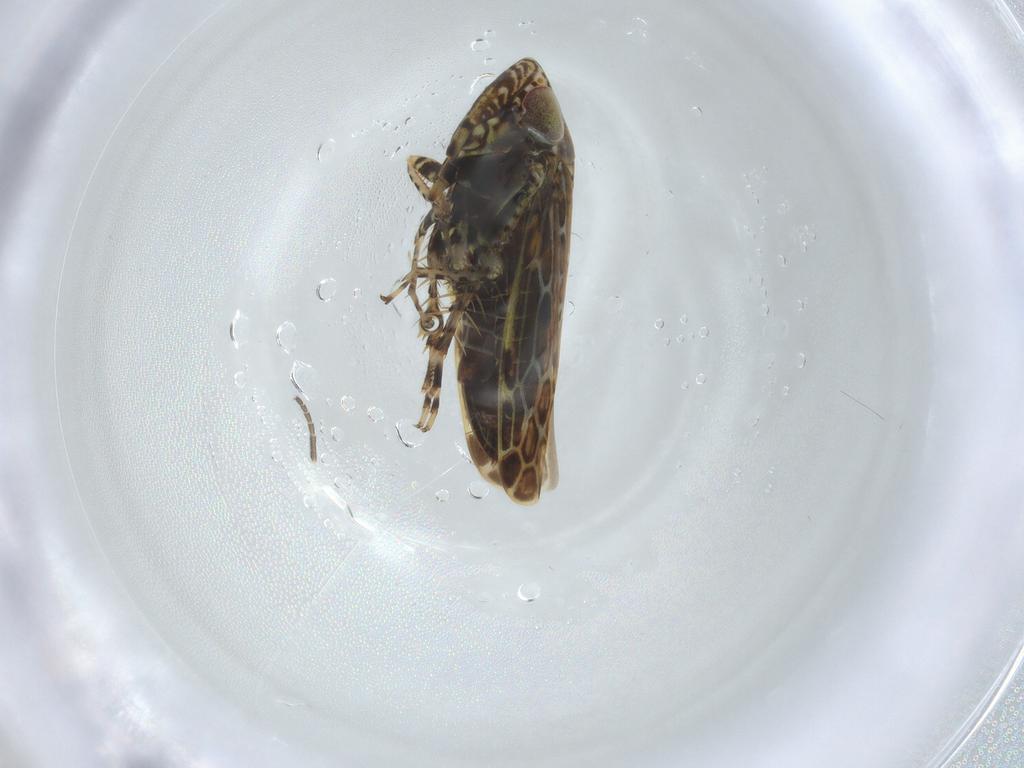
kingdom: Animalia
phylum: Arthropoda
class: Insecta
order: Hemiptera
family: Cicadellidae
